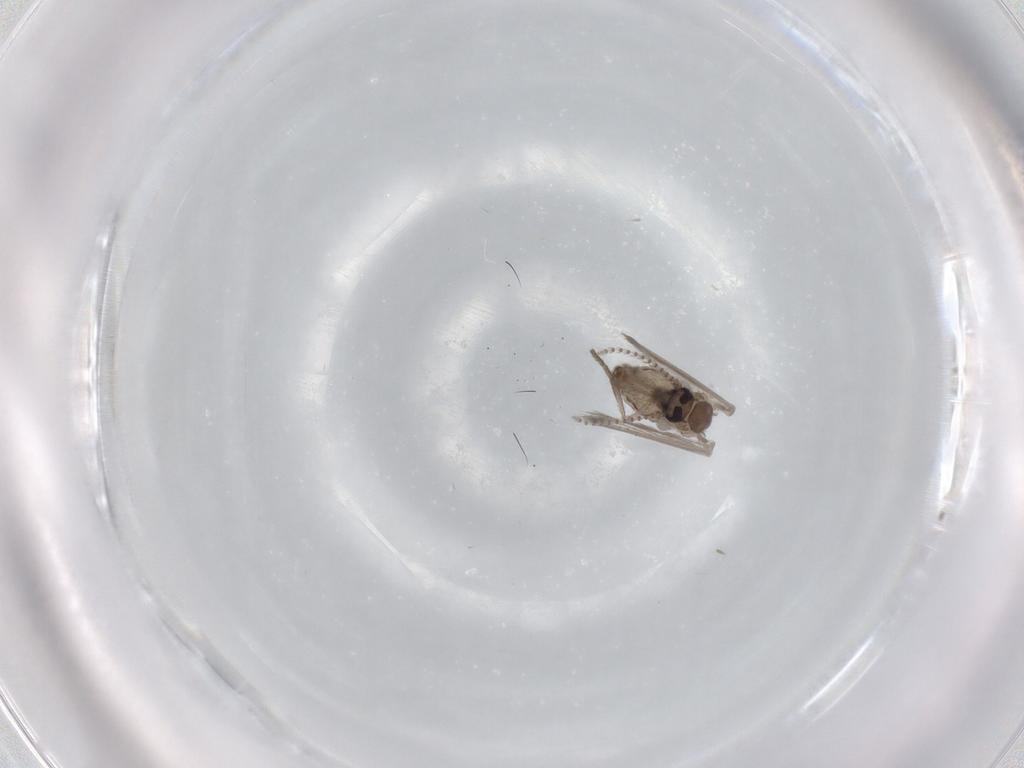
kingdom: Animalia
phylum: Arthropoda
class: Insecta
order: Diptera
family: Psychodidae
